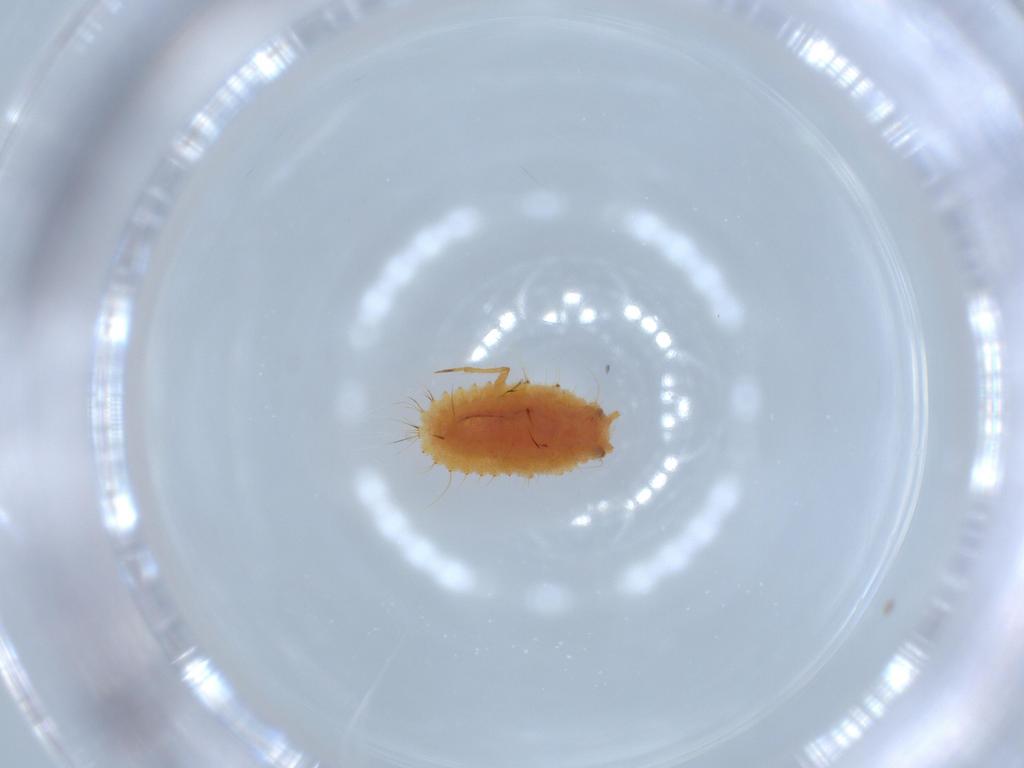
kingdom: Animalia
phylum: Arthropoda
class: Insecta
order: Hemiptera
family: Coccoidea_incertae_sedis
